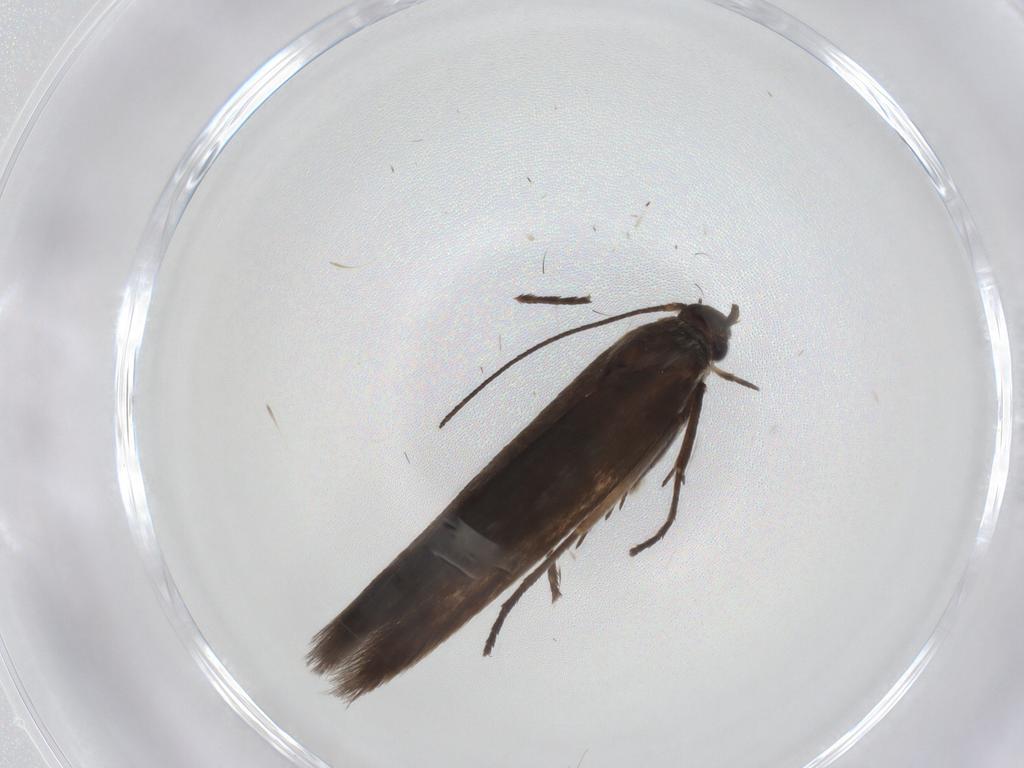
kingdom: Animalia
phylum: Arthropoda
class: Insecta
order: Lepidoptera
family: Scythrididae
